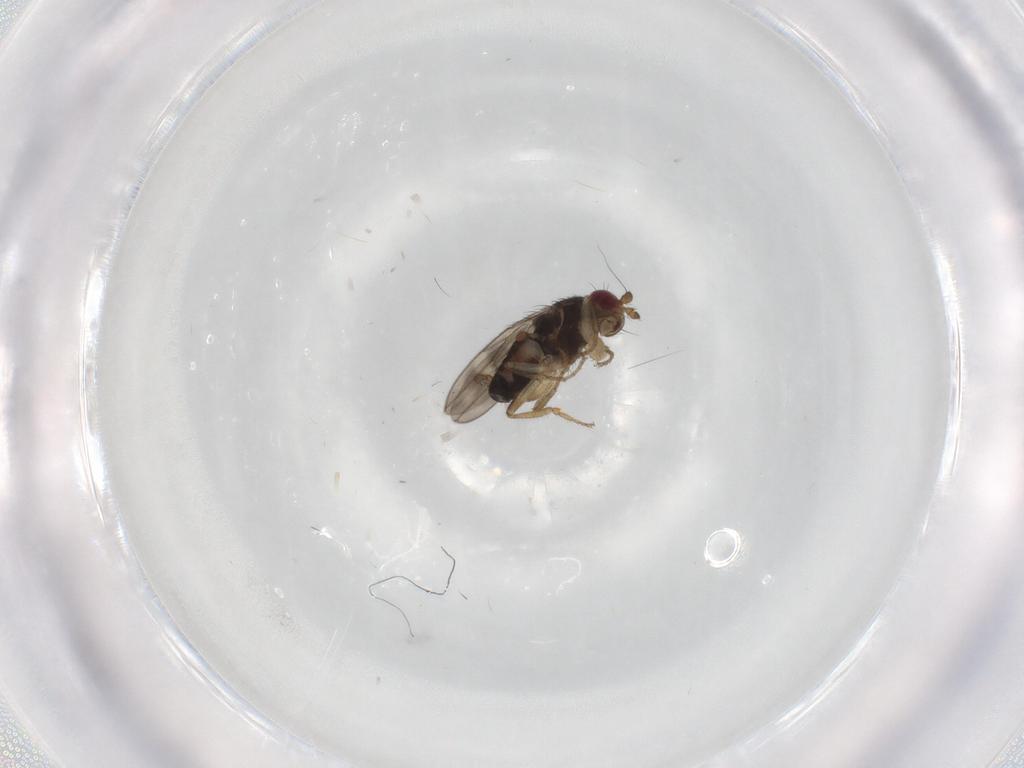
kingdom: Animalia
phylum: Arthropoda
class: Insecta
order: Diptera
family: Sphaeroceridae
